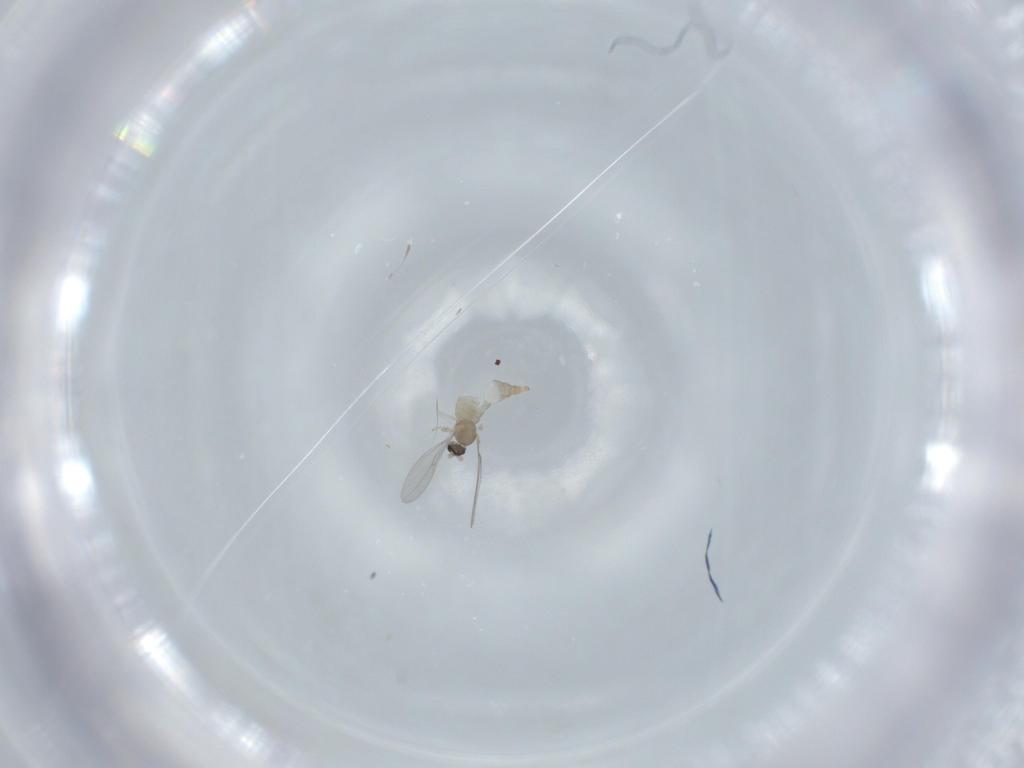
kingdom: Animalia
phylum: Arthropoda
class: Insecta
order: Diptera
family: Cecidomyiidae
